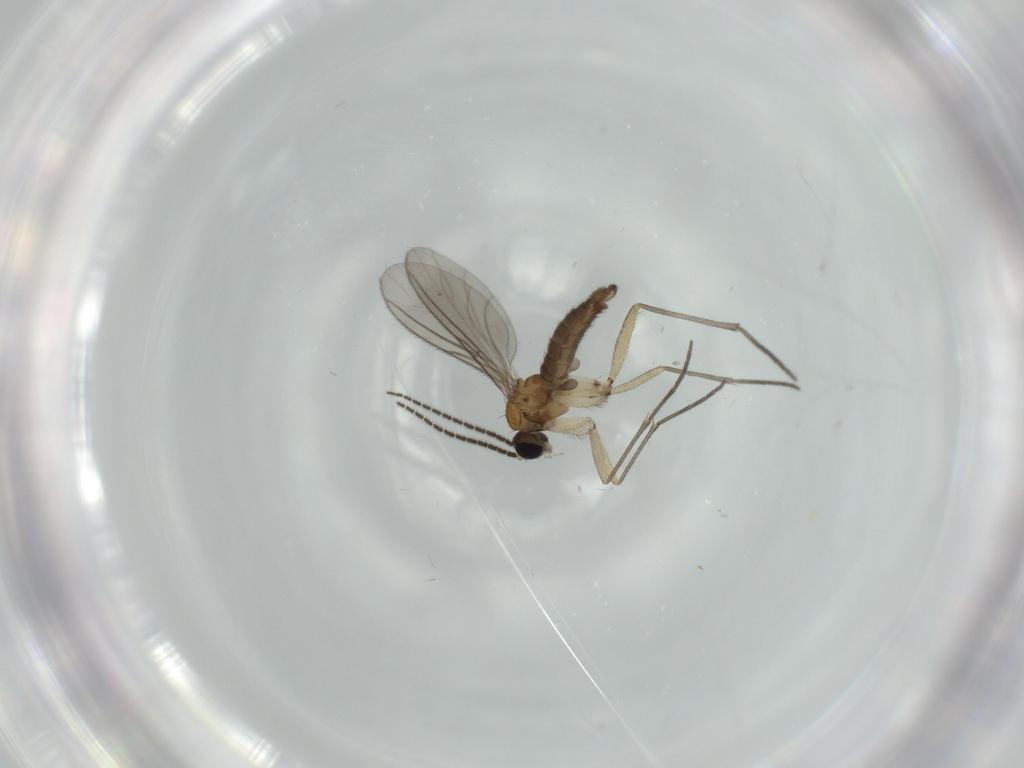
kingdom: Animalia
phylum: Arthropoda
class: Insecta
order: Diptera
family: Sciaridae
